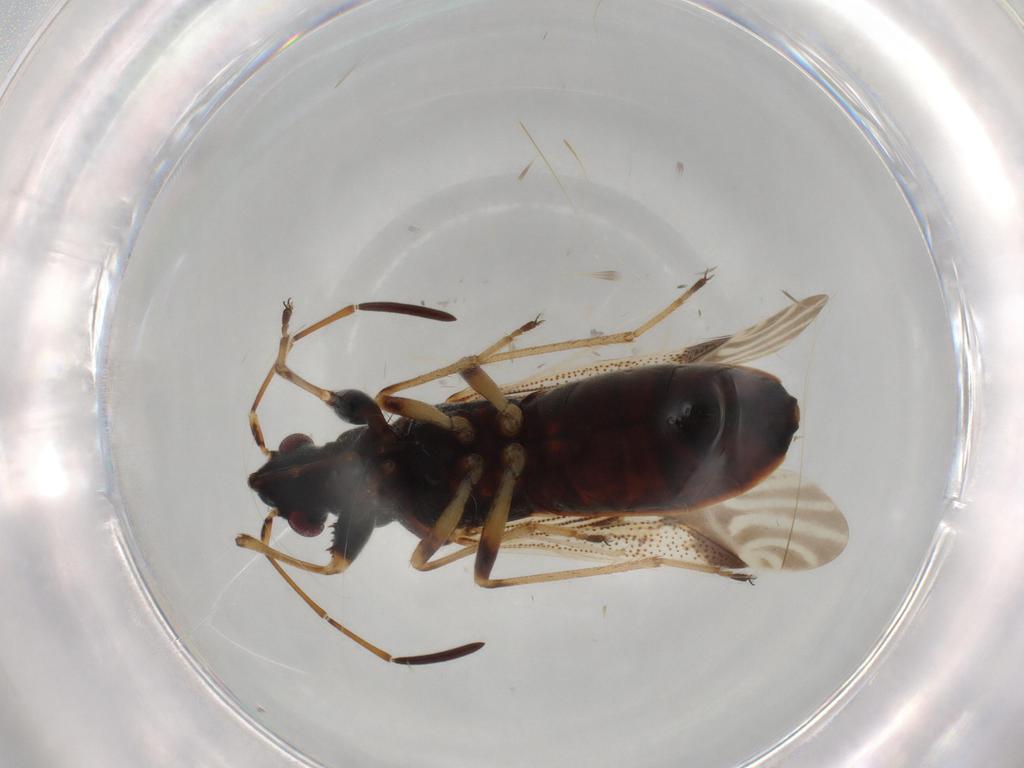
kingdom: Animalia
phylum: Arthropoda
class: Insecta
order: Hemiptera
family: Rhyparochromidae
